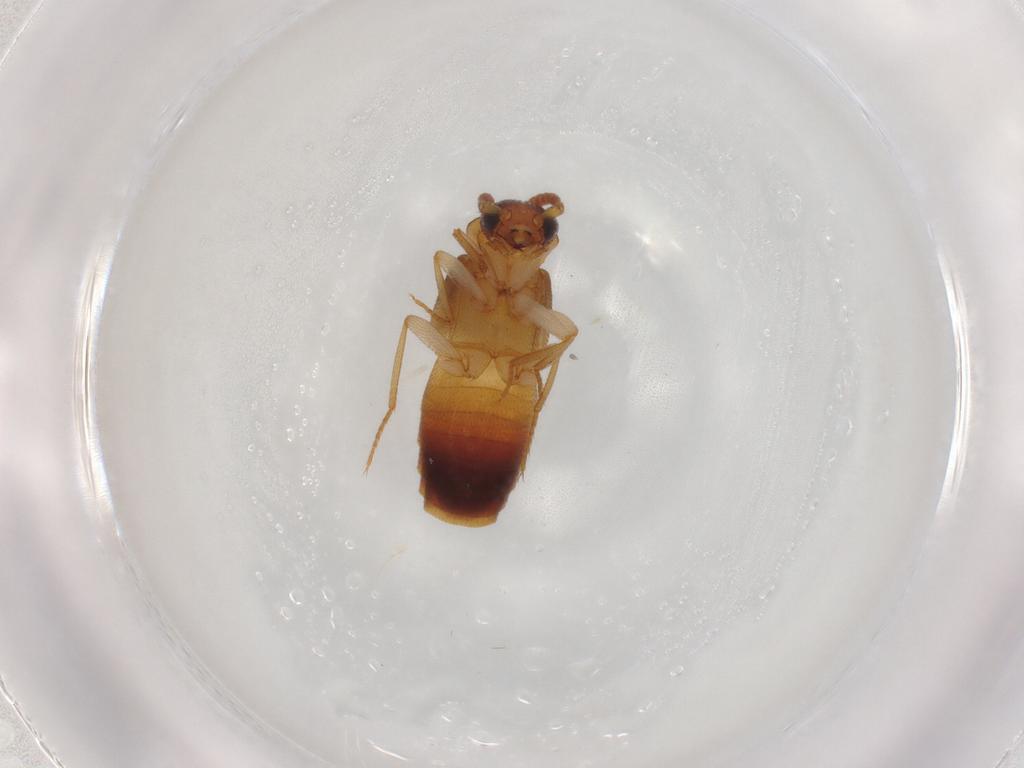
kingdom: Animalia
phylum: Arthropoda
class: Insecta
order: Coleoptera
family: Staphylinidae
